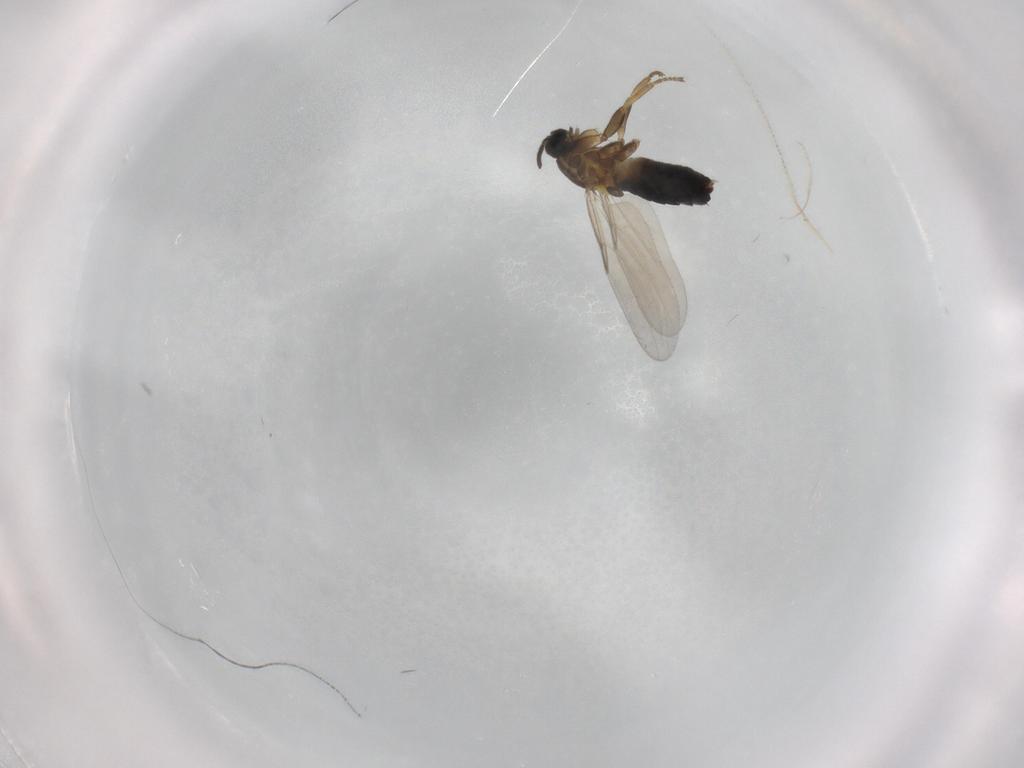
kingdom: Animalia
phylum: Arthropoda
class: Insecta
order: Diptera
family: Scatopsidae
